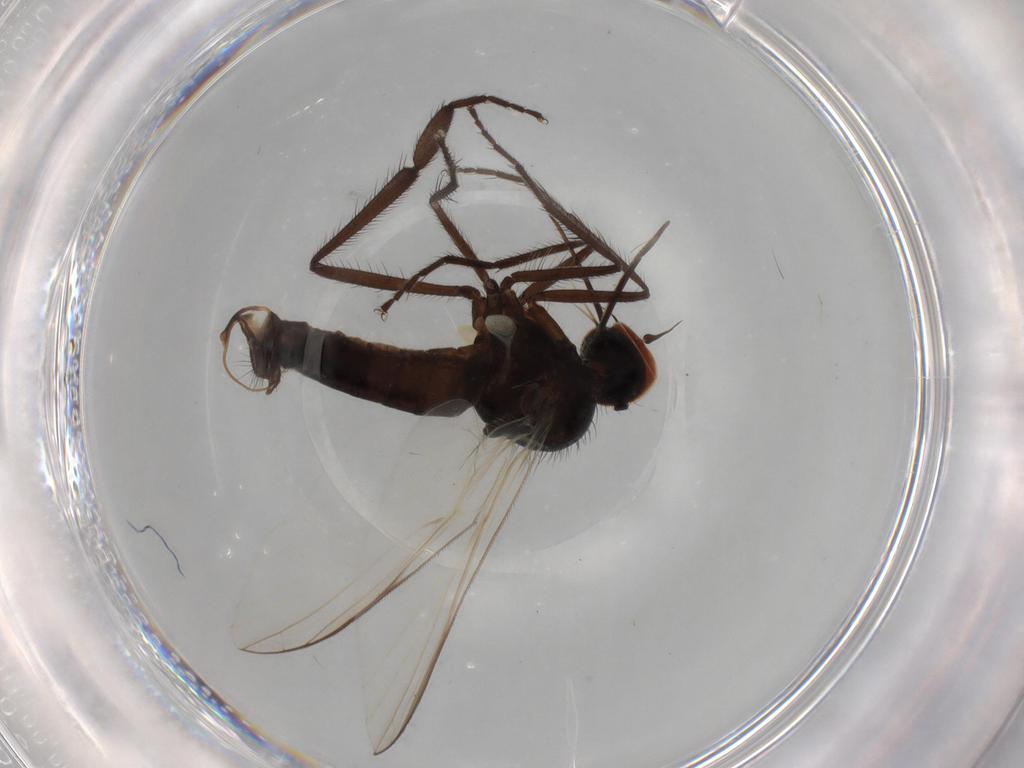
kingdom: Animalia
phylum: Arthropoda
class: Insecta
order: Diptera
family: Empididae
